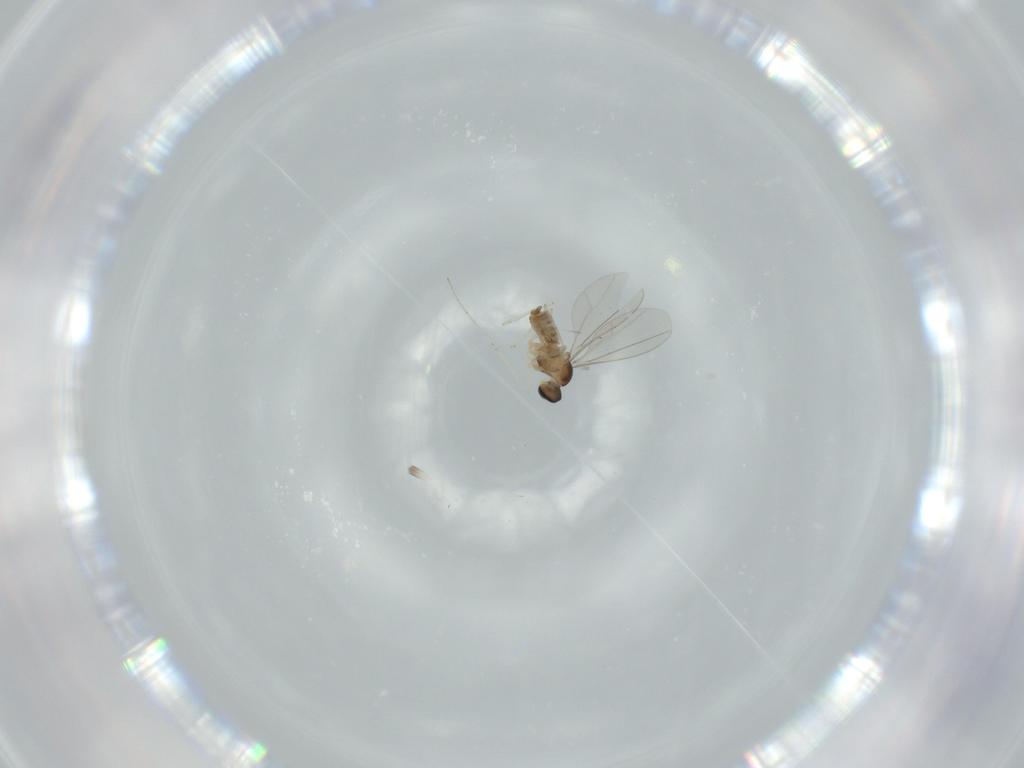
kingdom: Animalia
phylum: Arthropoda
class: Insecta
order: Diptera
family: Cecidomyiidae
